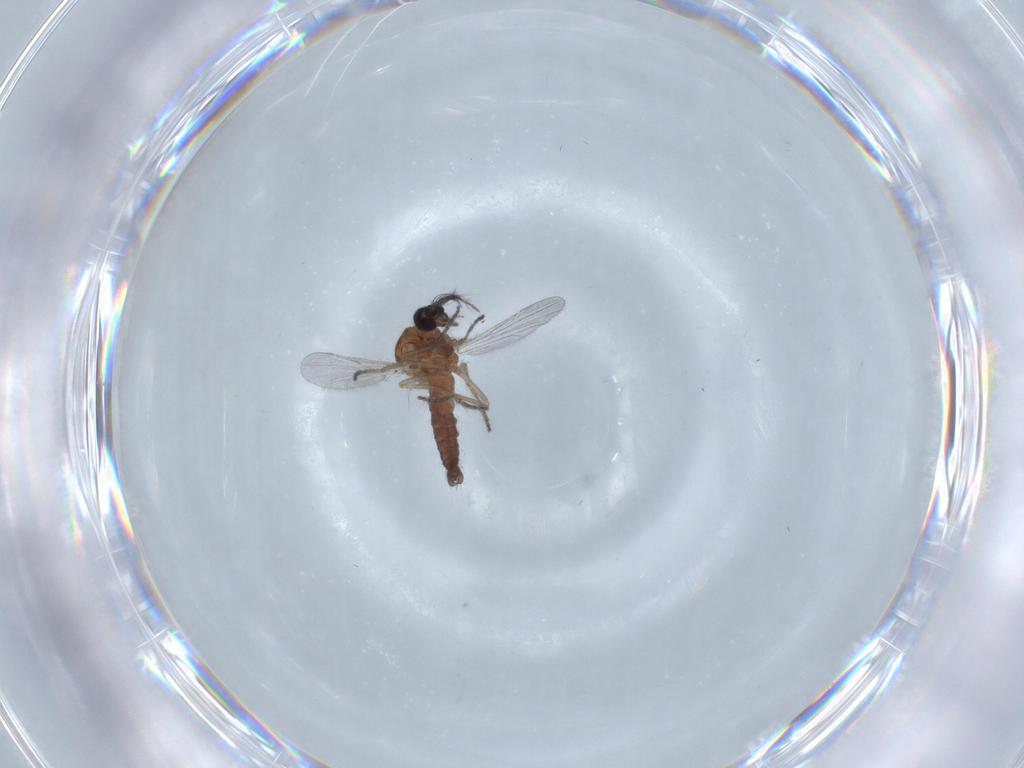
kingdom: Animalia
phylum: Arthropoda
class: Insecta
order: Diptera
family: Ceratopogonidae
